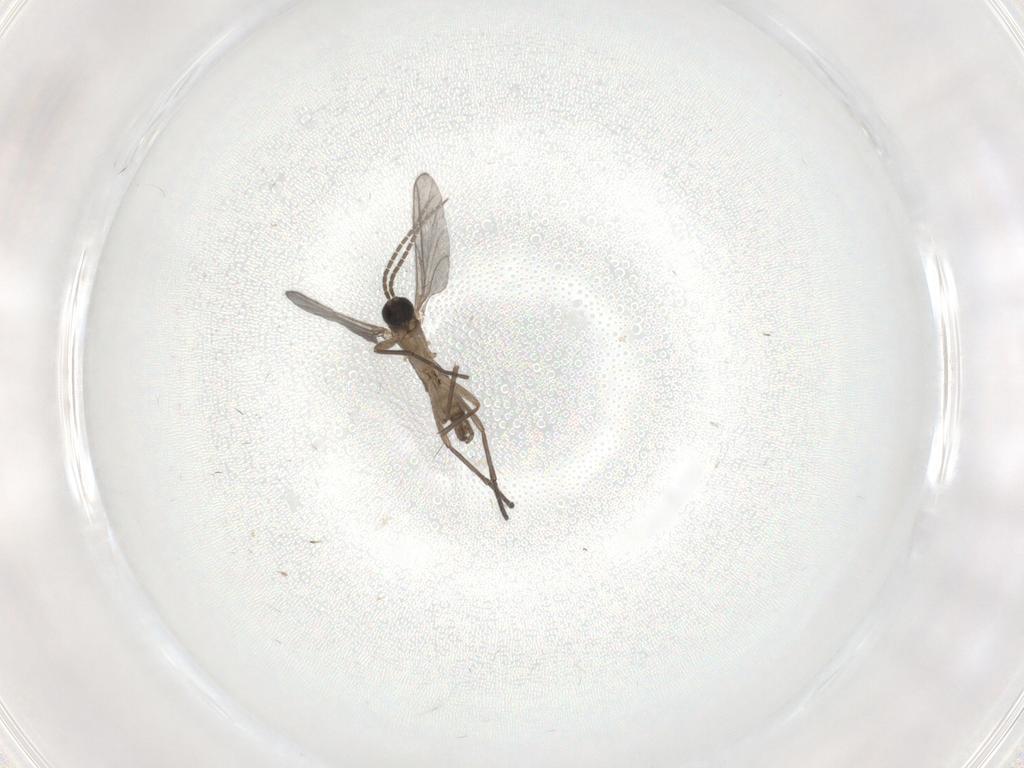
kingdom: Animalia
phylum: Arthropoda
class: Insecta
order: Diptera
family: Sciaridae
